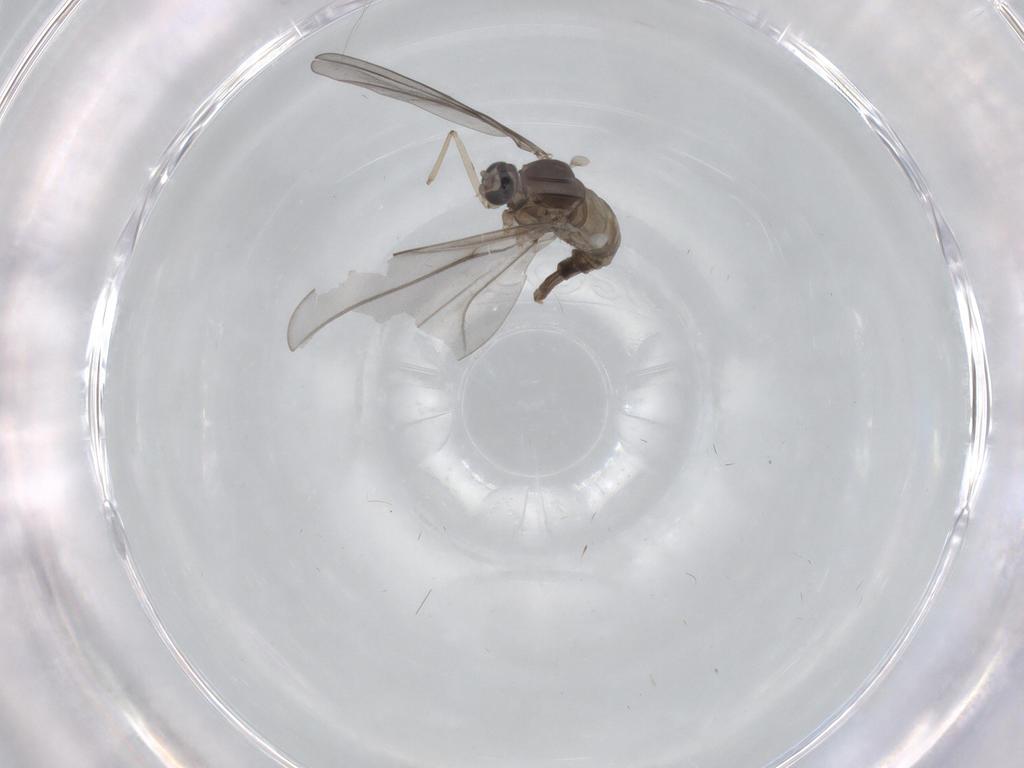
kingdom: Animalia
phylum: Arthropoda
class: Insecta
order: Diptera
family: Cecidomyiidae
